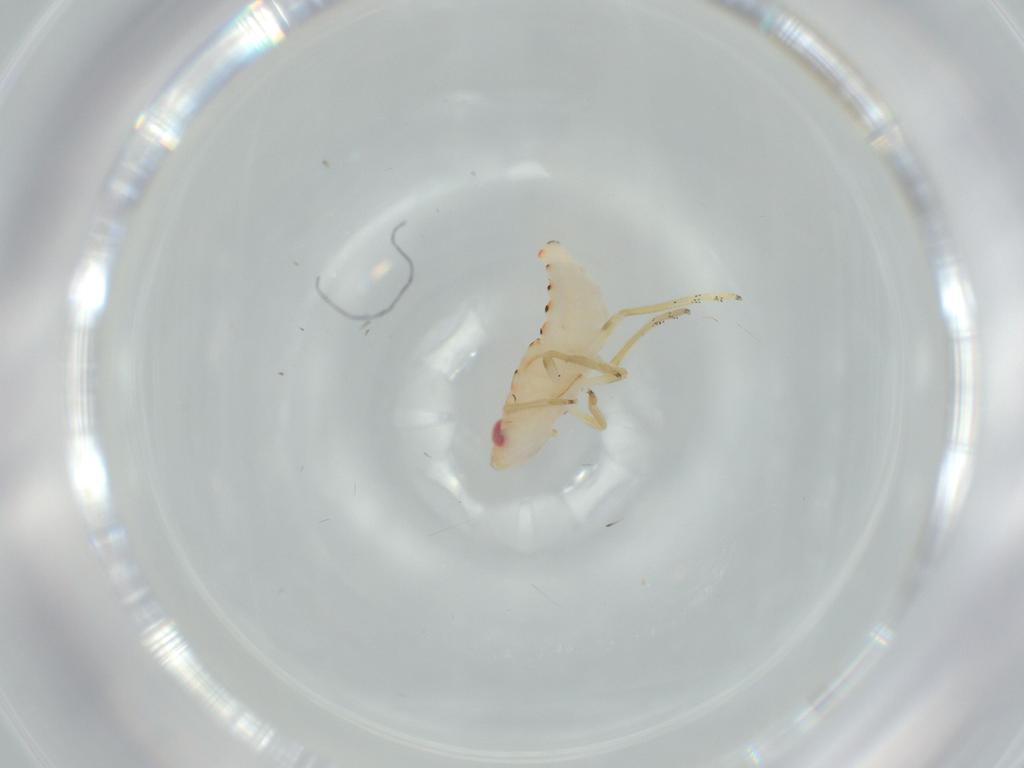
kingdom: Animalia
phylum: Arthropoda
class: Insecta
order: Hemiptera
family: Tropiduchidae
